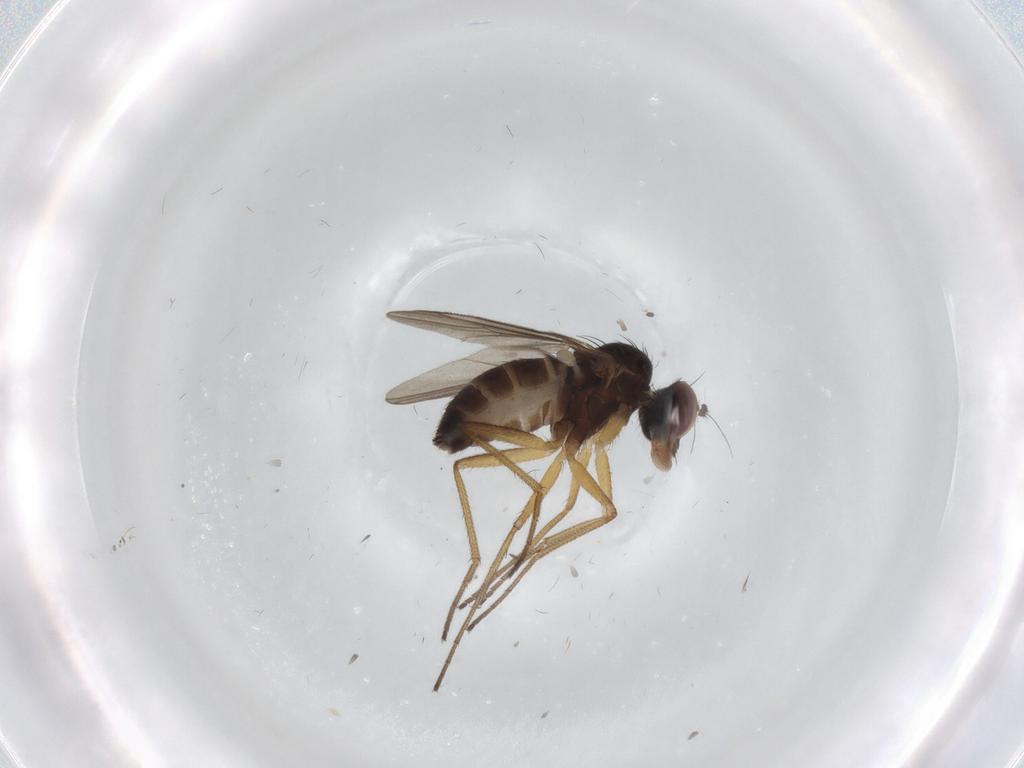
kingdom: Animalia
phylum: Arthropoda
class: Insecta
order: Diptera
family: Dolichopodidae
